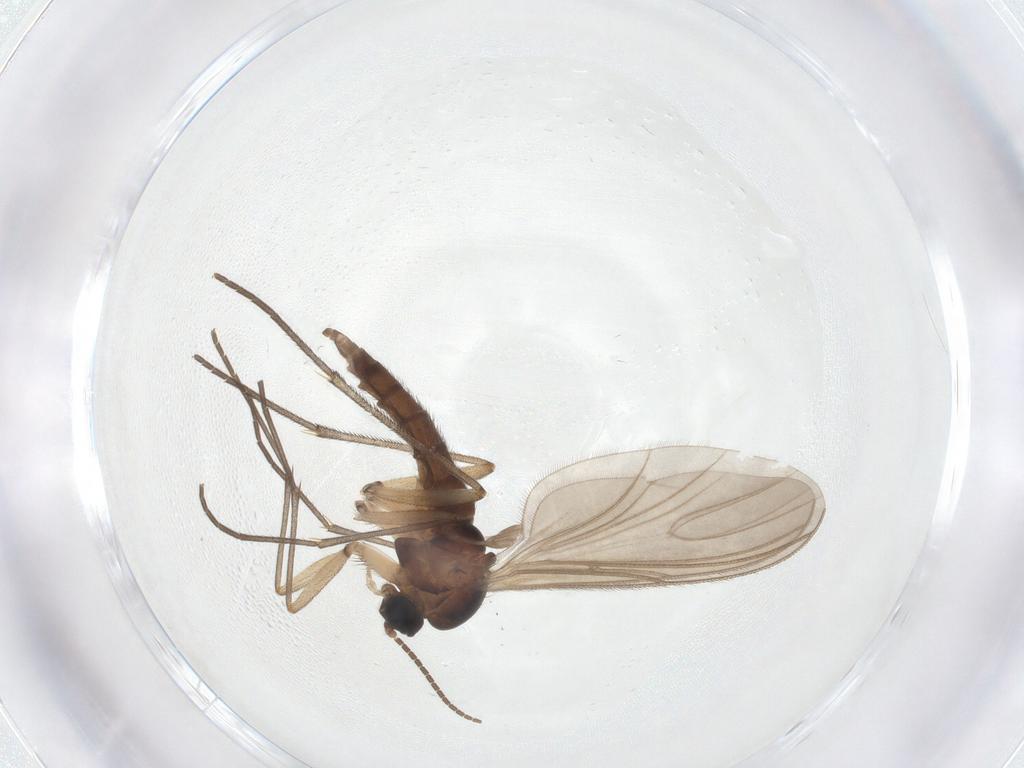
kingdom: Animalia
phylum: Arthropoda
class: Insecta
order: Diptera
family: Sciaridae
